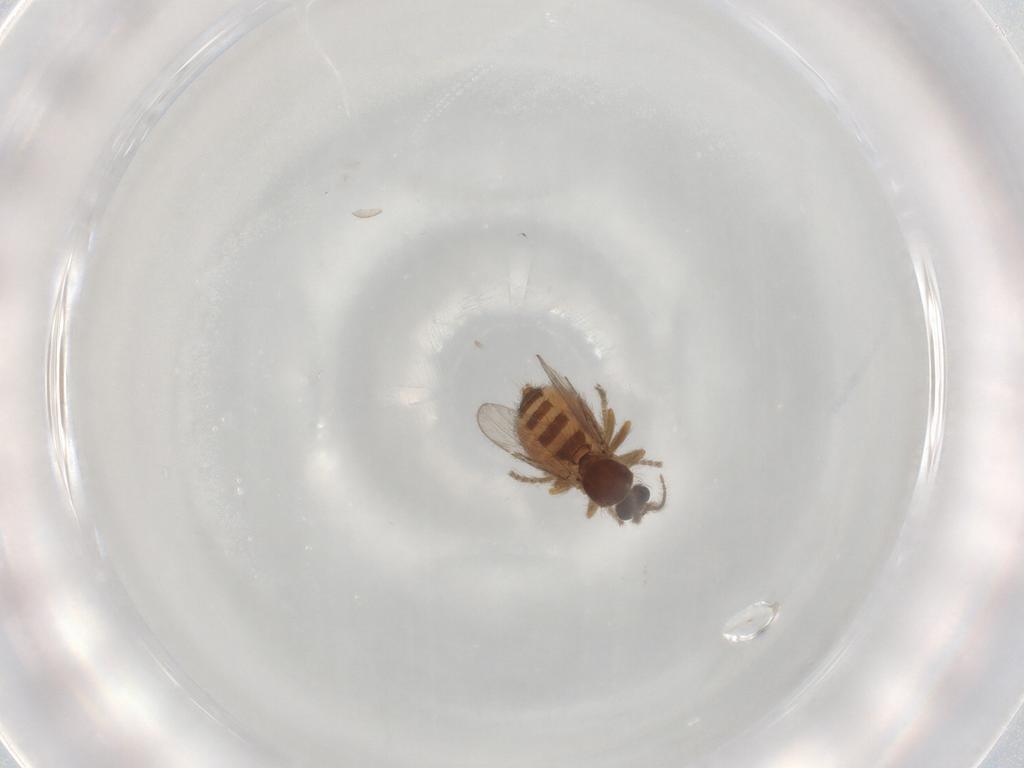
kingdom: Animalia
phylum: Arthropoda
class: Insecta
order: Diptera
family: Ceratopogonidae
